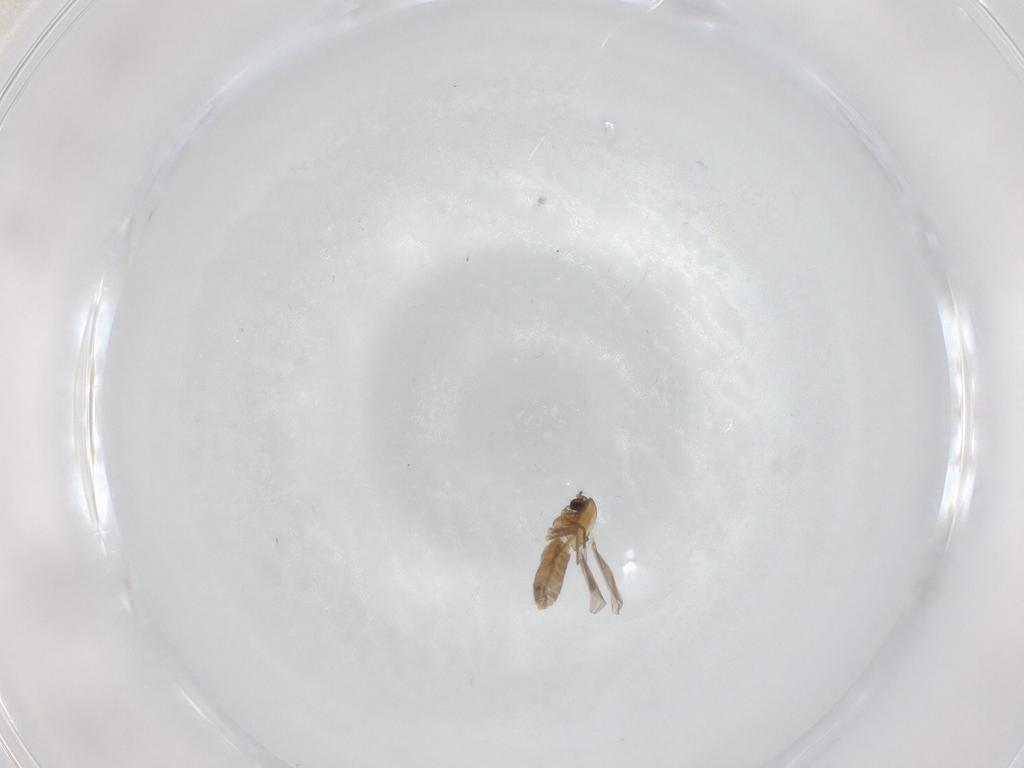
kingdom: Animalia
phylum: Arthropoda
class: Insecta
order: Diptera
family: Chironomidae
